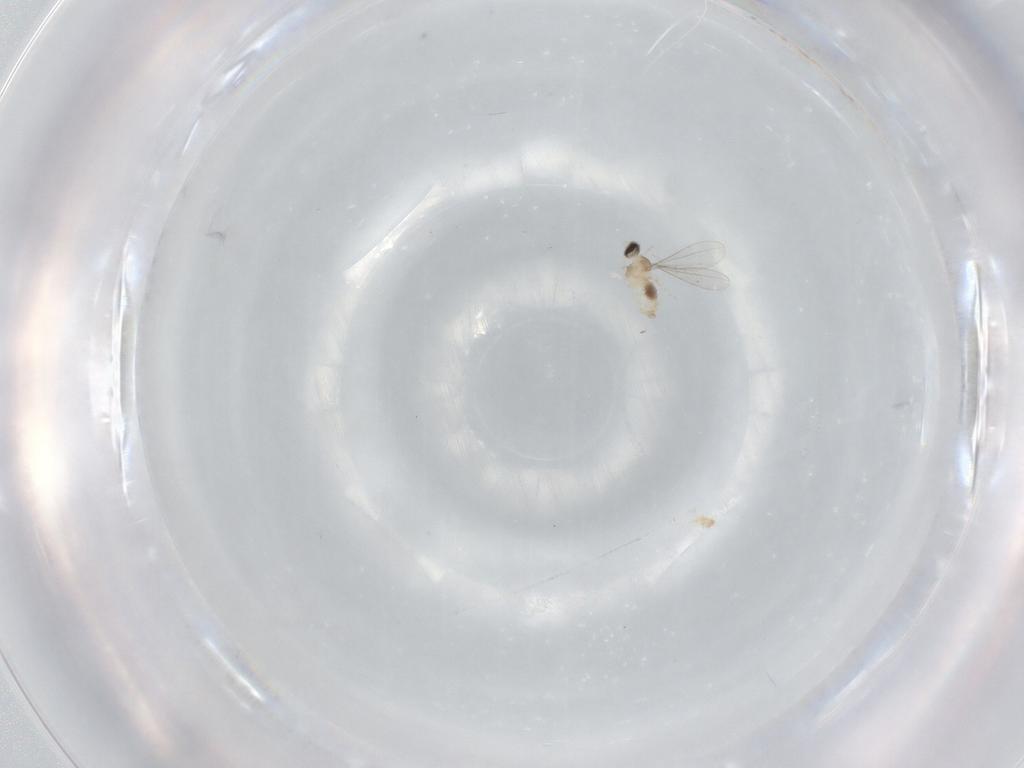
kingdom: Animalia
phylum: Arthropoda
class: Insecta
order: Diptera
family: Cecidomyiidae
